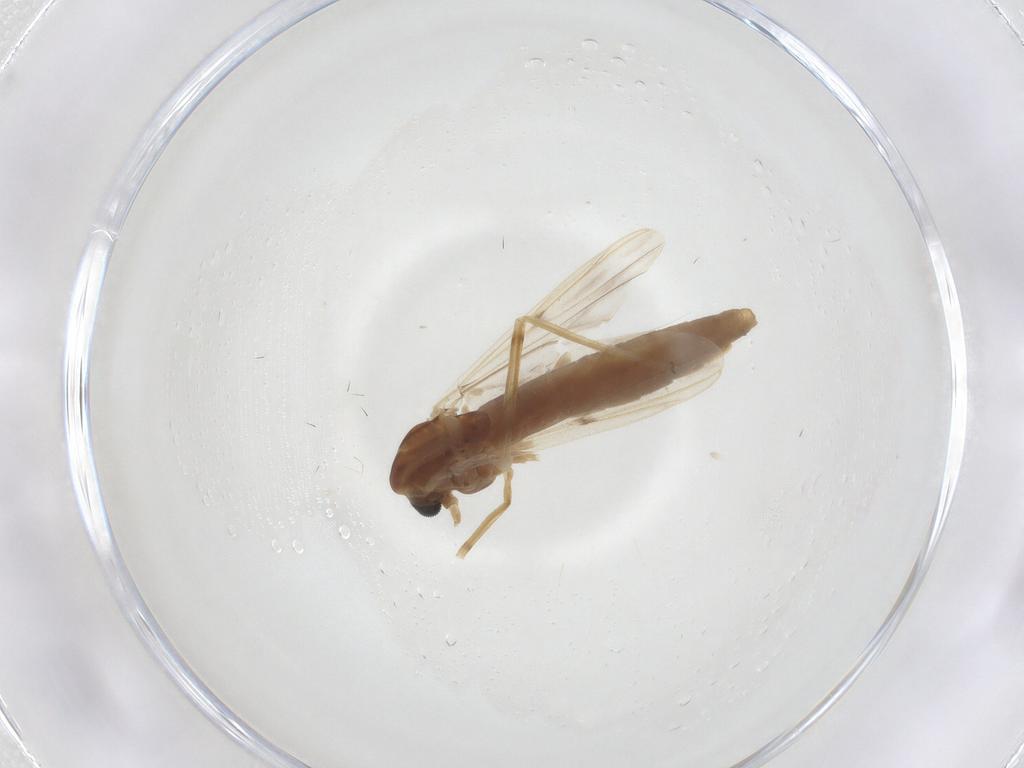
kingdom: Animalia
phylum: Arthropoda
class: Insecta
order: Diptera
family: Chironomidae
